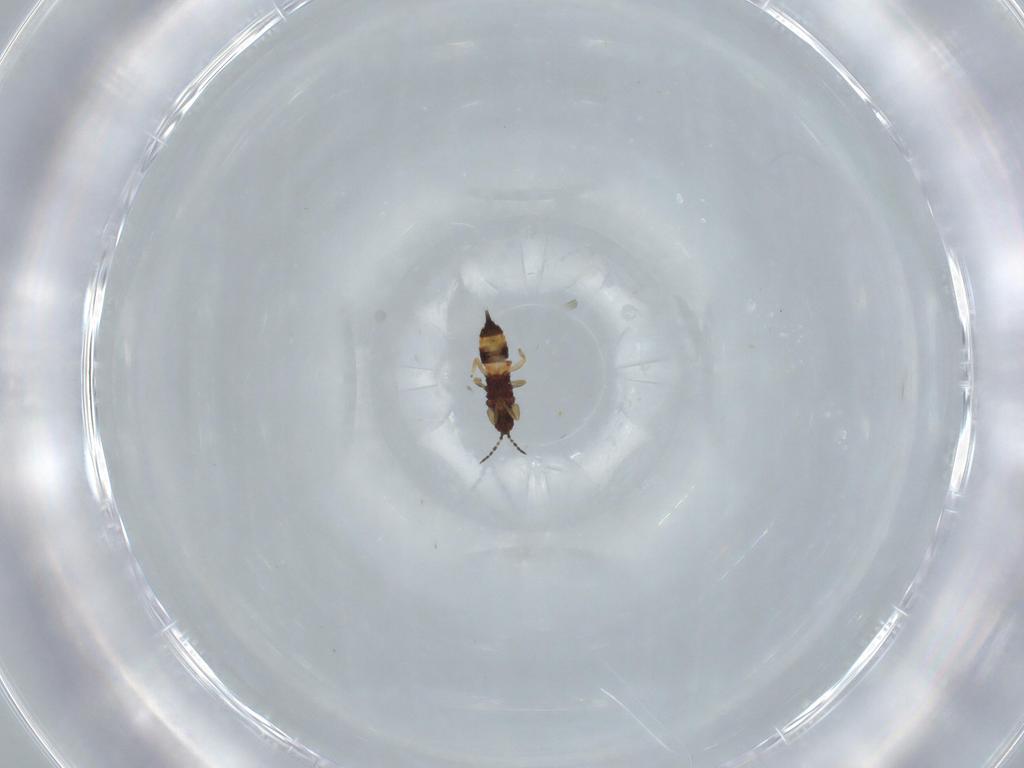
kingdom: Animalia
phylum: Arthropoda
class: Insecta
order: Thysanoptera
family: Phlaeothripidae
